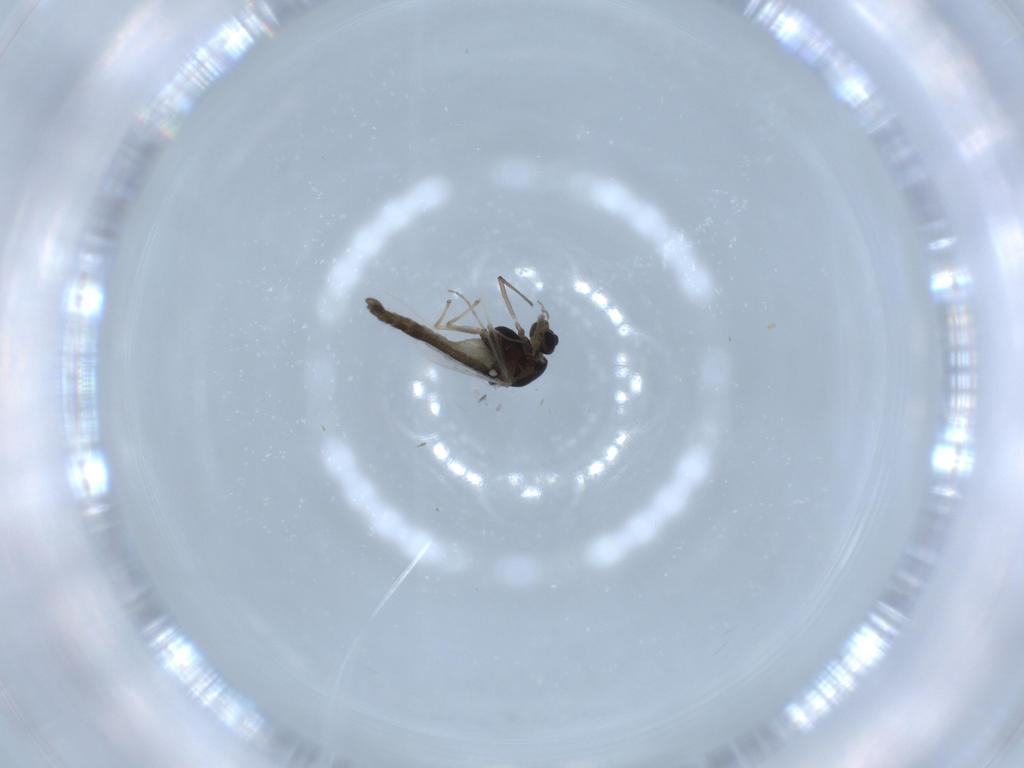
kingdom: Animalia
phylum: Arthropoda
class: Insecta
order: Diptera
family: Chironomidae
